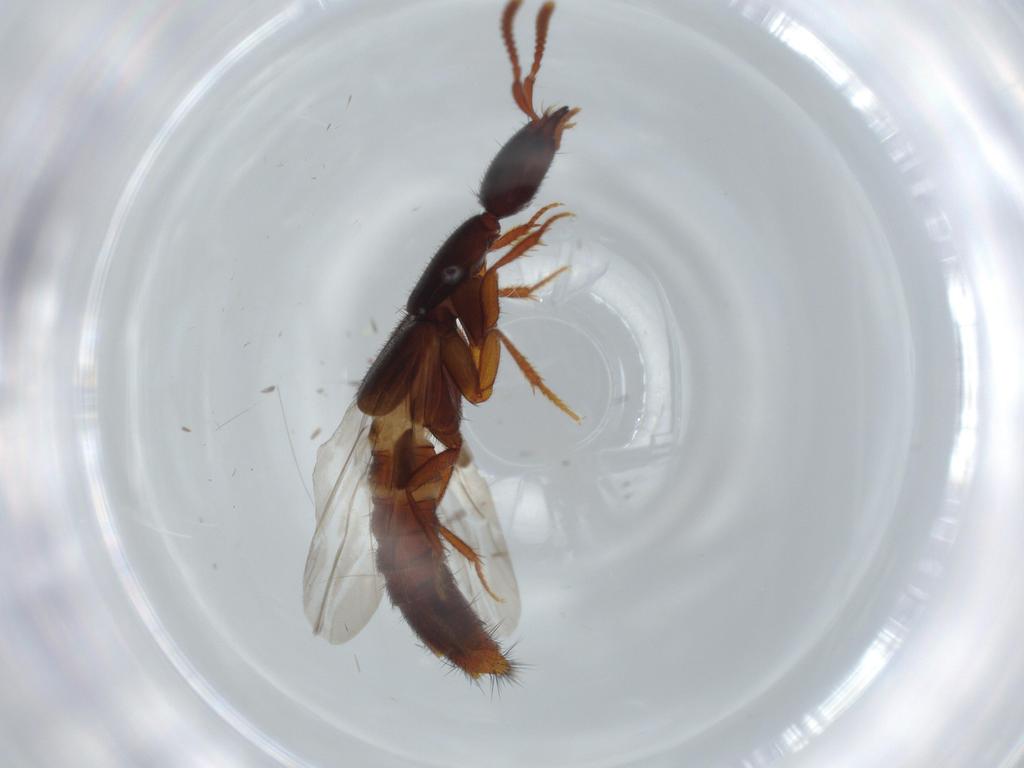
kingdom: Animalia
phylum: Arthropoda
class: Insecta
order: Coleoptera
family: Staphylinidae
